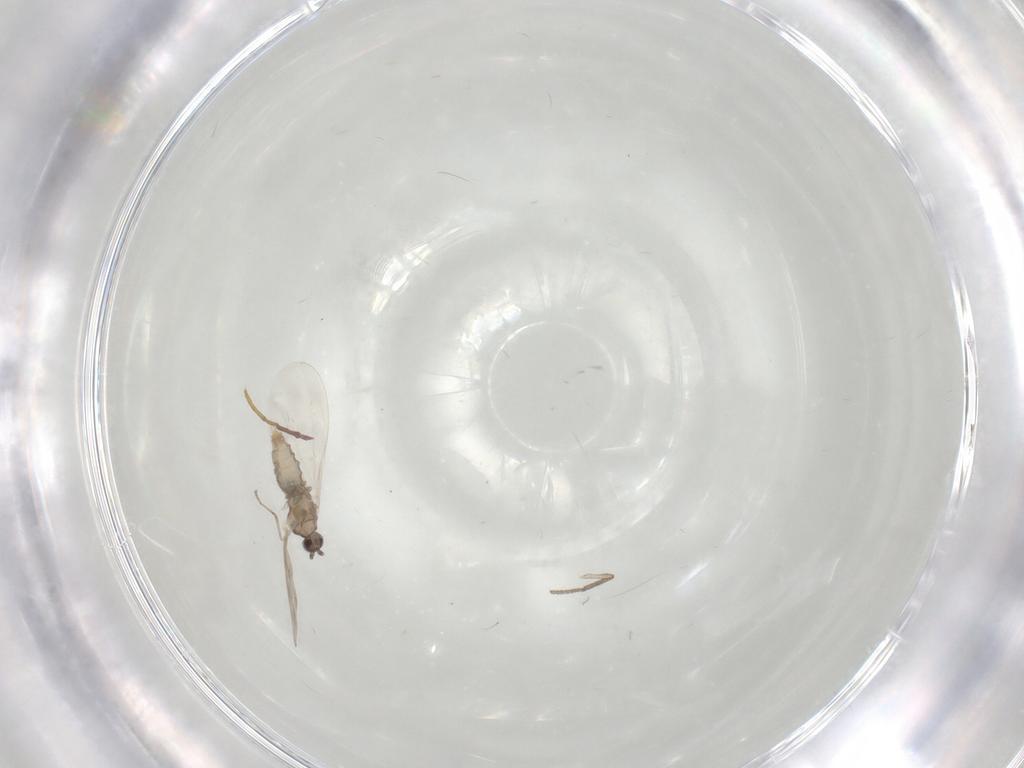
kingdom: Animalia
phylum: Arthropoda
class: Insecta
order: Diptera
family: Cecidomyiidae
